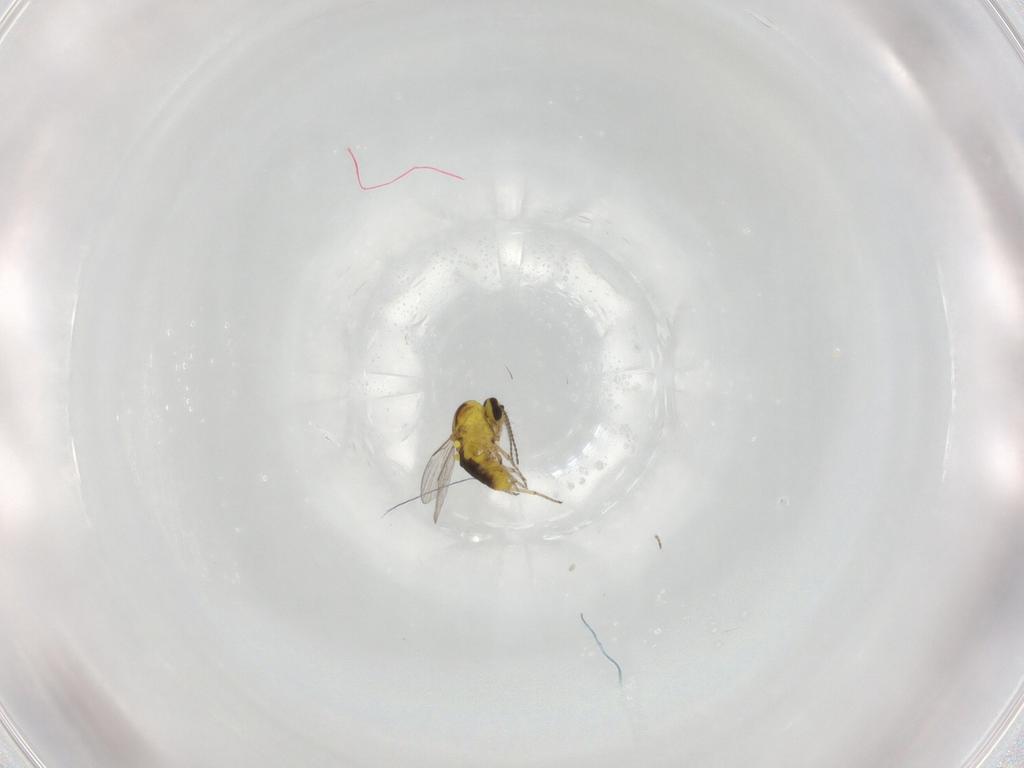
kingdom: Animalia
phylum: Arthropoda
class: Insecta
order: Diptera
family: Ceratopogonidae
